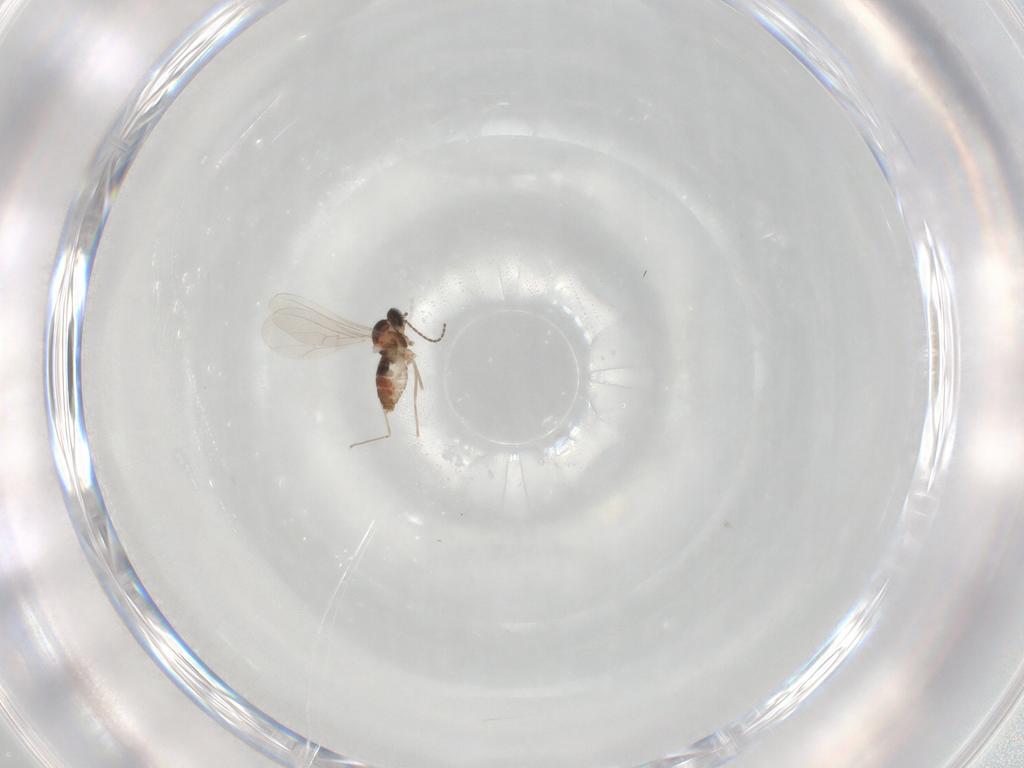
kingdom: Animalia
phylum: Arthropoda
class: Insecta
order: Diptera
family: Cecidomyiidae
